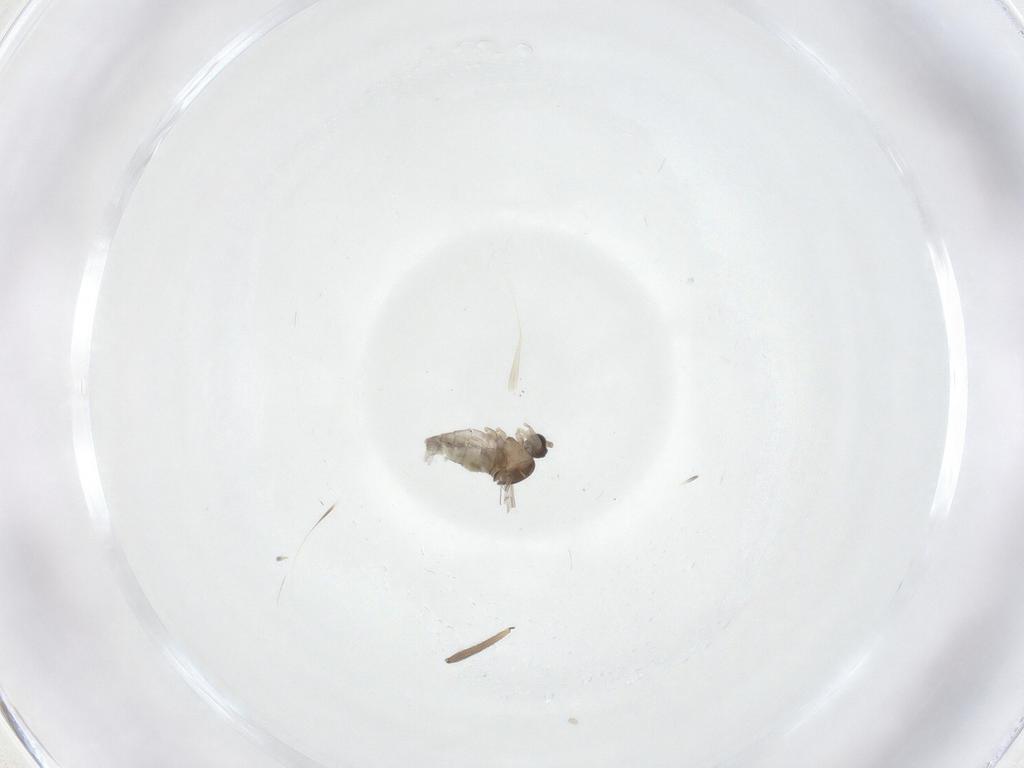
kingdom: Animalia
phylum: Arthropoda
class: Insecta
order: Diptera
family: Cecidomyiidae
